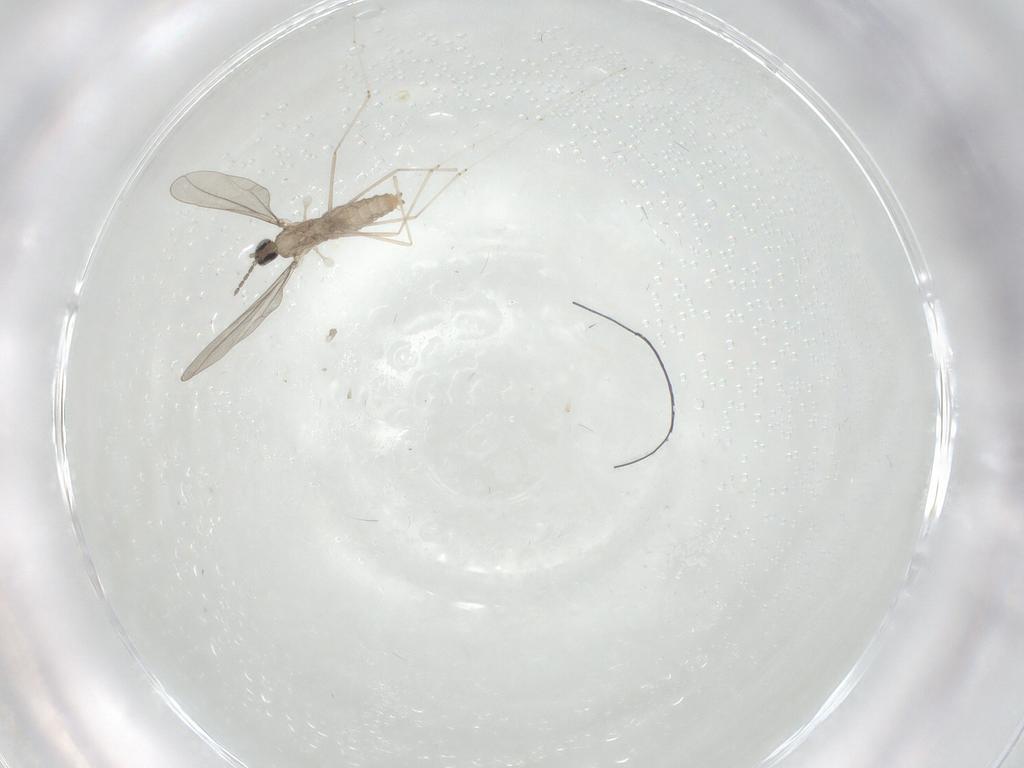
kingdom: Animalia
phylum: Arthropoda
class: Insecta
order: Diptera
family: Cecidomyiidae
